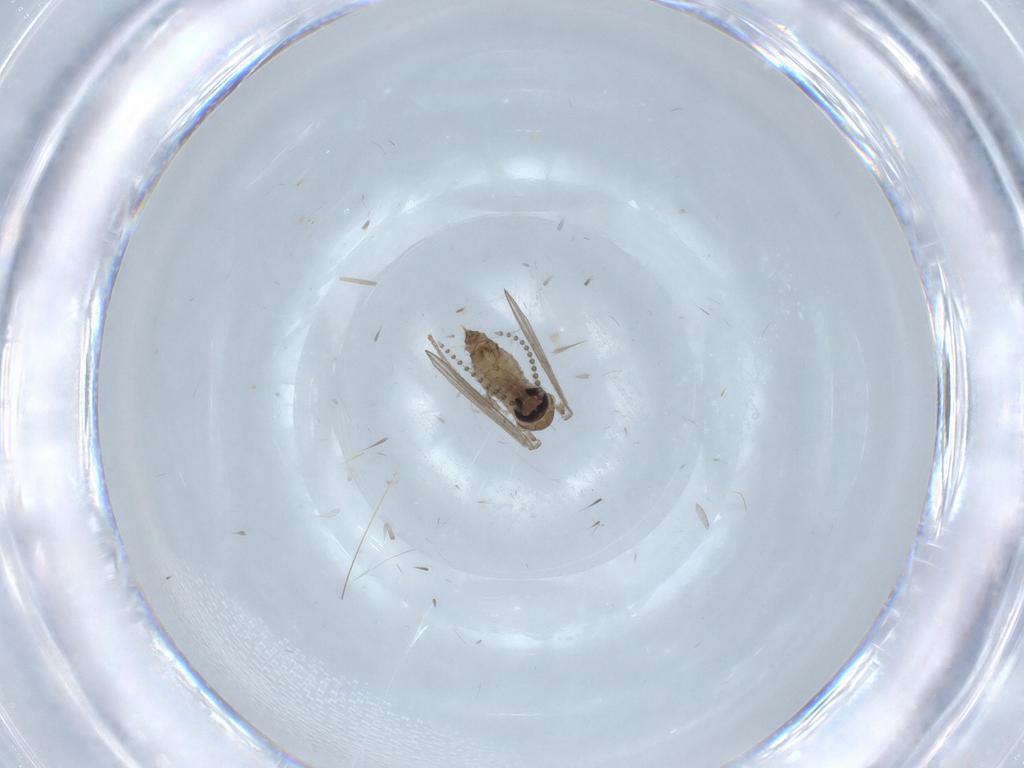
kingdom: Animalia
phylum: Arthropoda
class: Insecta
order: Diptera
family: Psychodidae
